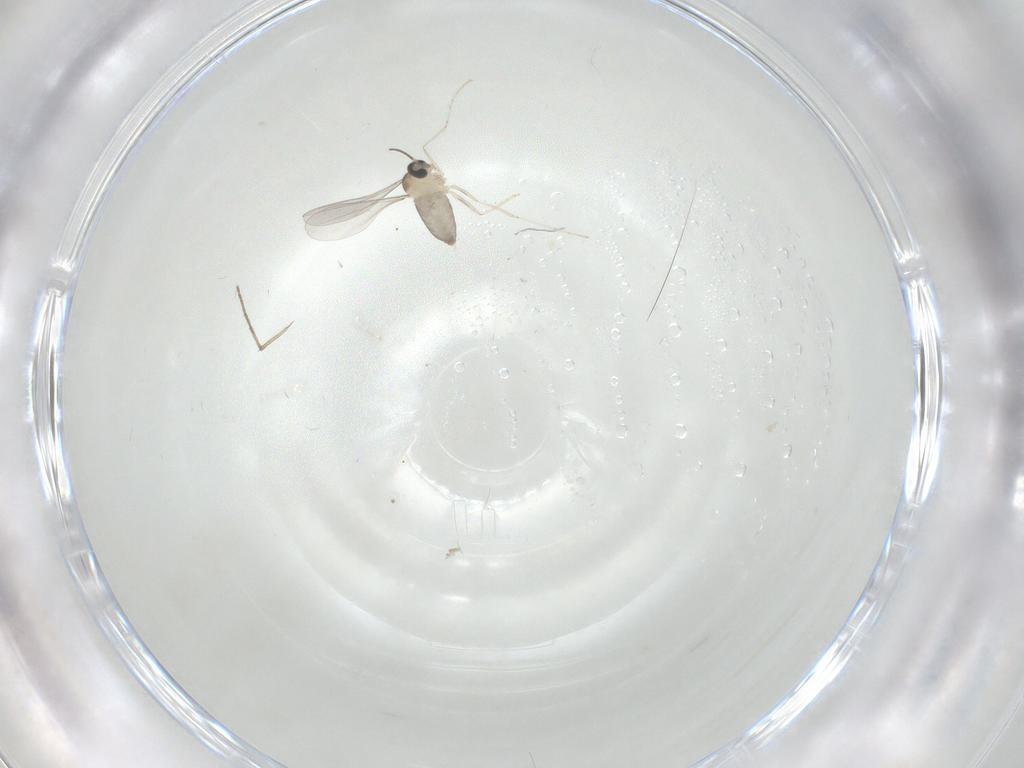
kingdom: Animalia
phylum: Arthropoda
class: Insecta
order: Diptera
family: Cecidomyiidae
